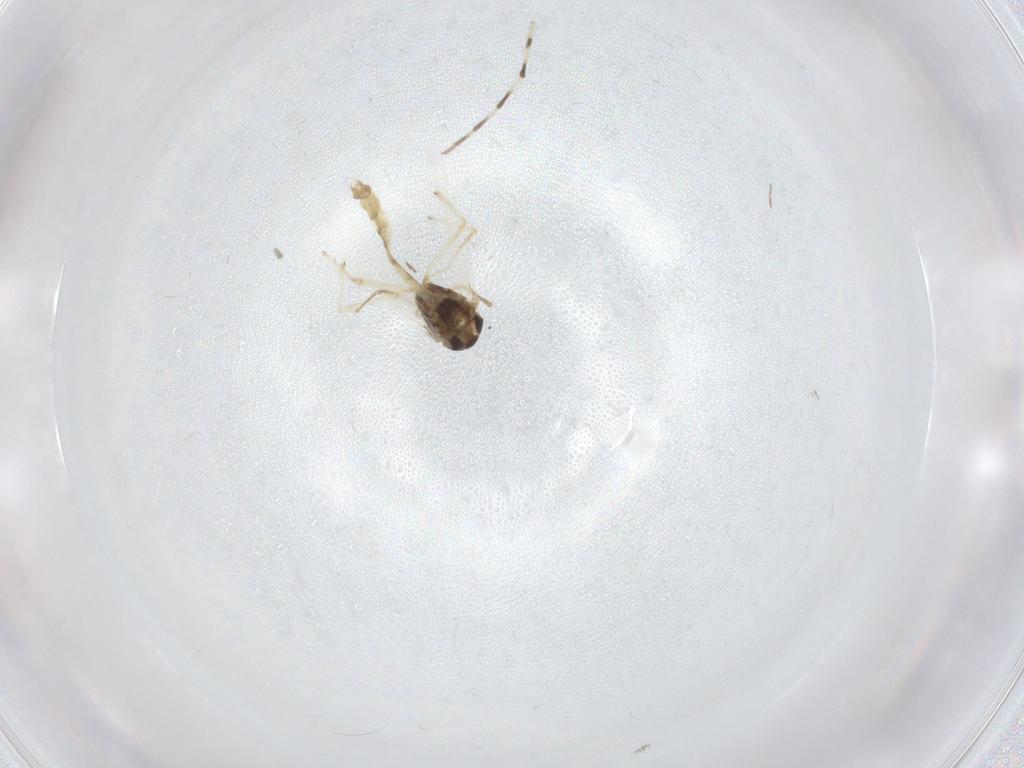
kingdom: Animalia
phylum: Arthropoda
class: Insecta
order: Diptera
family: Chironomidae
